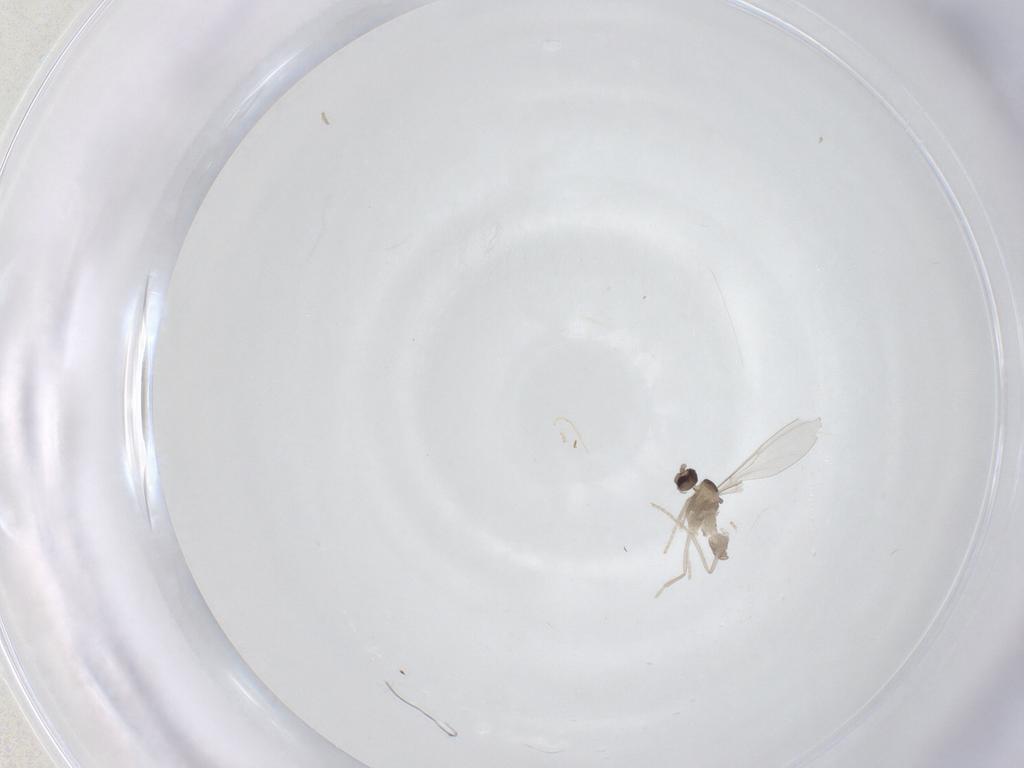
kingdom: Animalia
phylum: Arthropoda
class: Insecta
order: Diptera
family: Cecidomyiidae
